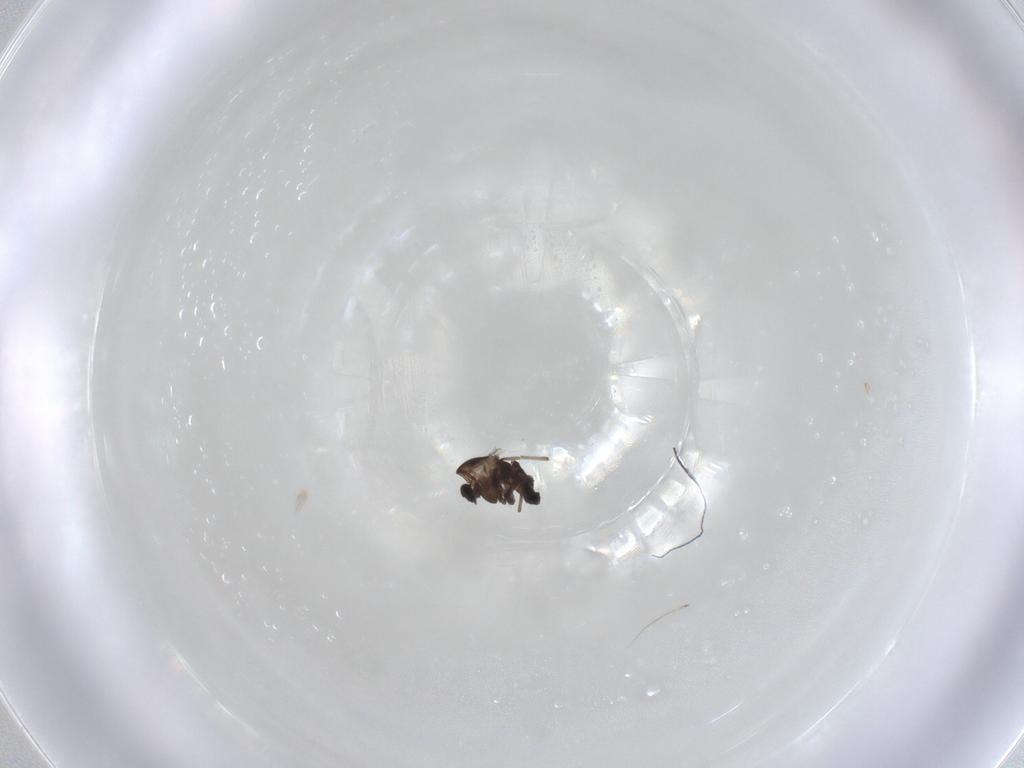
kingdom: Animalia
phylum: Arthropoda
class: Insecta
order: Diptera
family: Chironomidae
